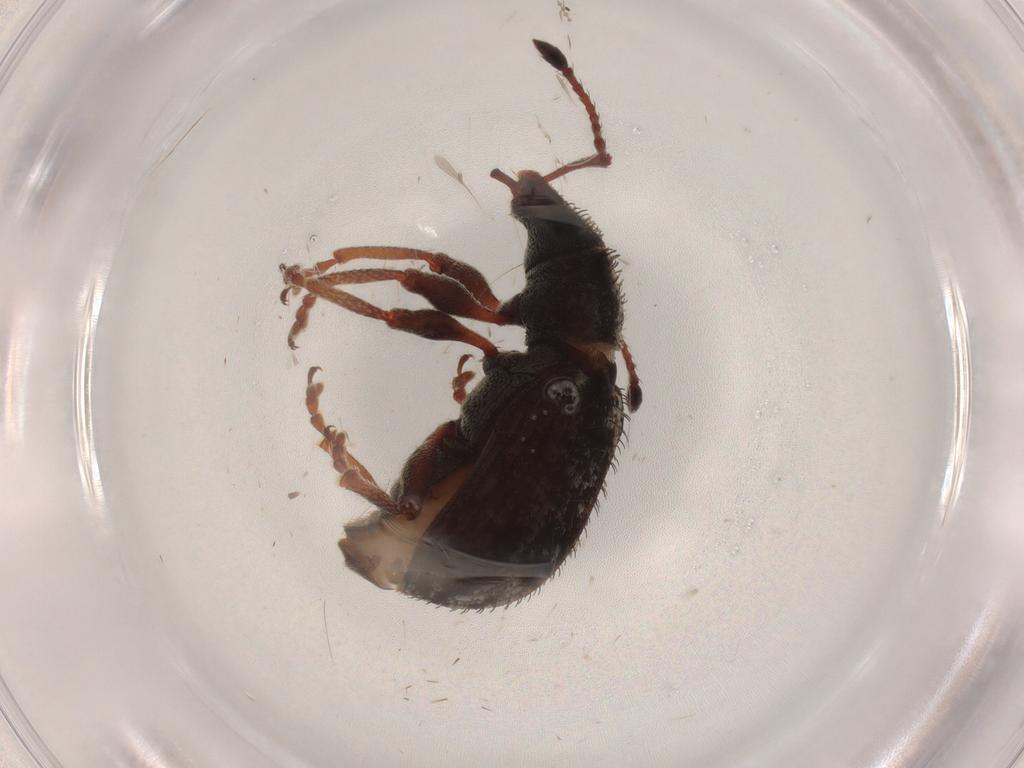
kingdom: Animalia
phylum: Arthropoda
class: Insecta
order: Coleoptera
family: Curculionidae
